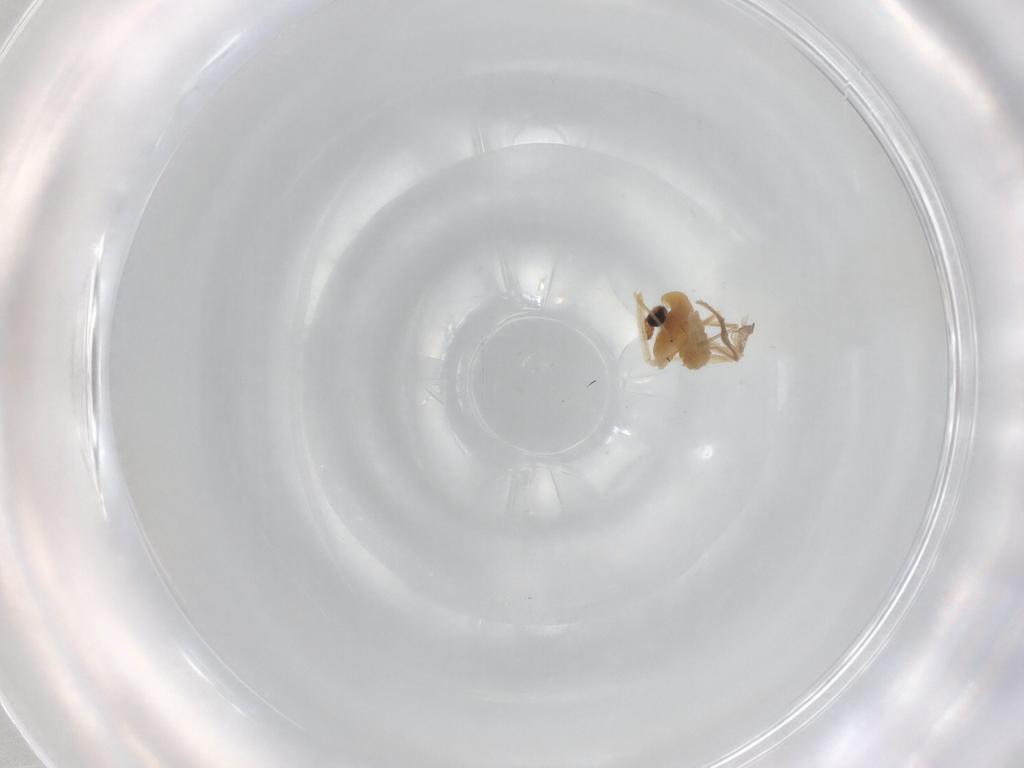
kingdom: Animalia
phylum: Arthropoda
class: Insecta
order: Diptera
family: Chironomidae
